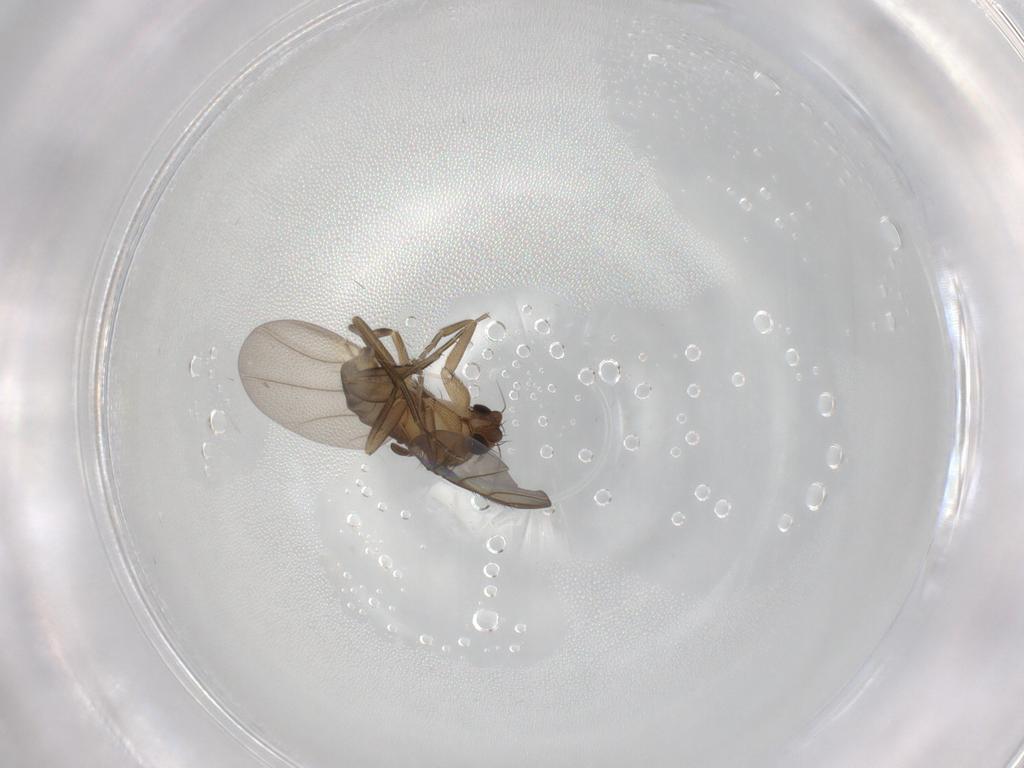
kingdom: Animalia
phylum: Arthropoda
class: Insecta
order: Diptera
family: Phoridae
